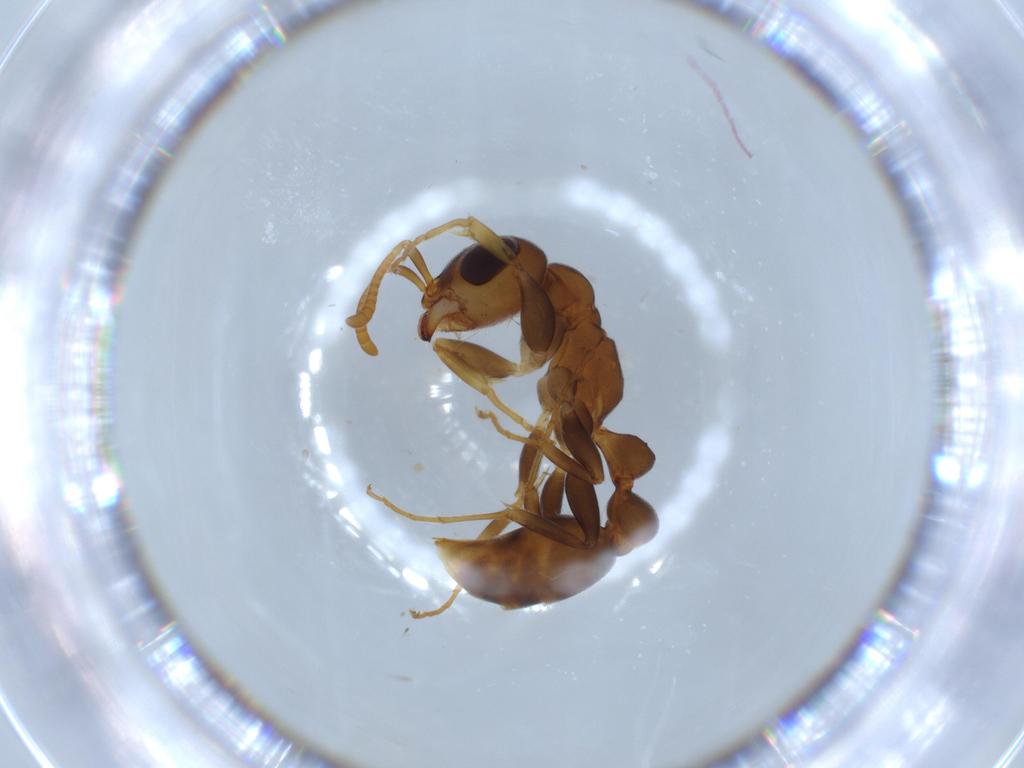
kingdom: Animalia
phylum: Arthropoda
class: Insecta
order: Hymenoptera
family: Formicidae
